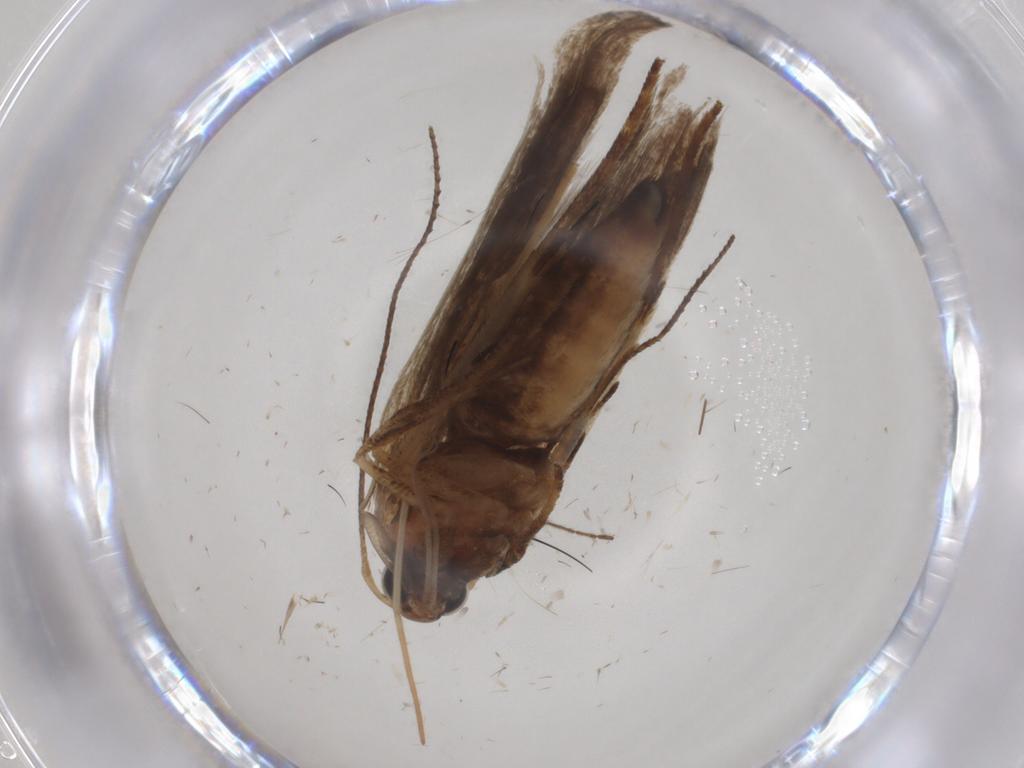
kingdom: Animalia
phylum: Arthropoda
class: Insecta
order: Lepidoptera
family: Gelechiidae
